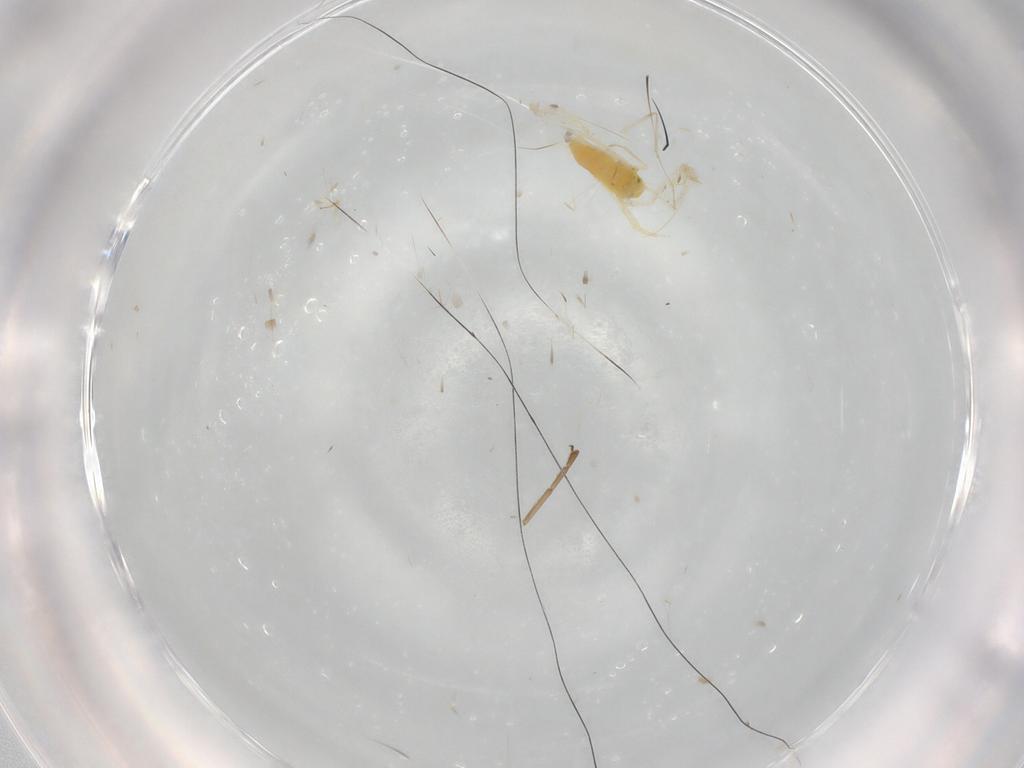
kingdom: Animalia
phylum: Arthropoda
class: Insecta
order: Hemiptera
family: Aleyrodidae
